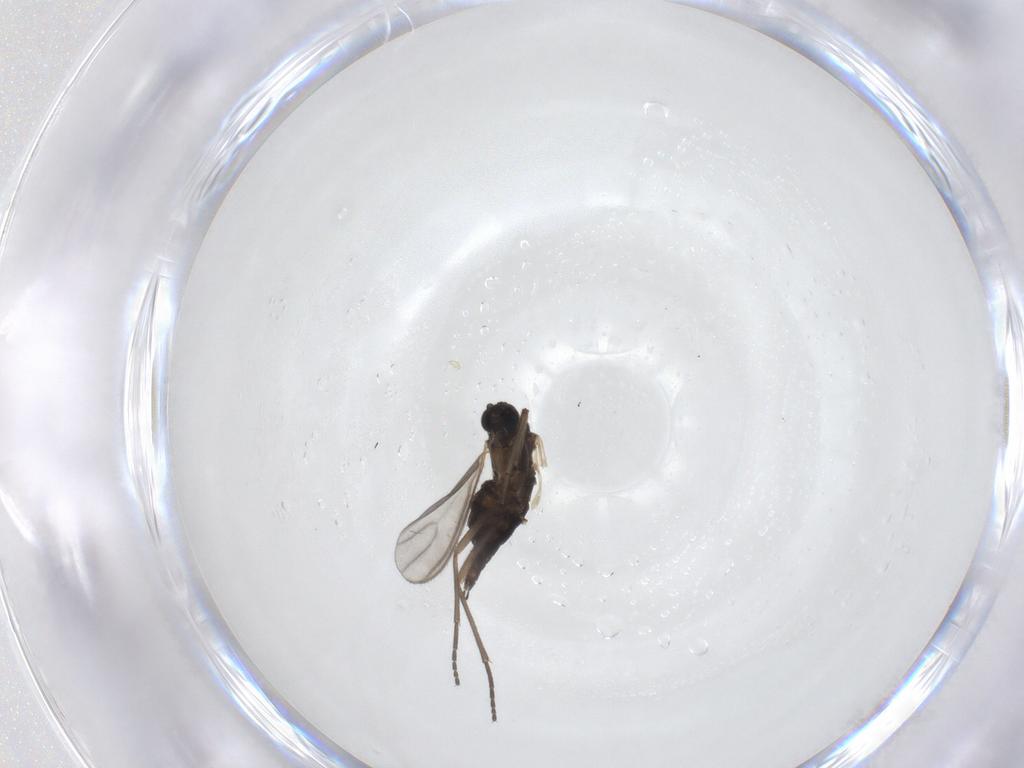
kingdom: Animalia
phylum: Arthropoda
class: Insecta
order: Diptera
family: Sciaridae
